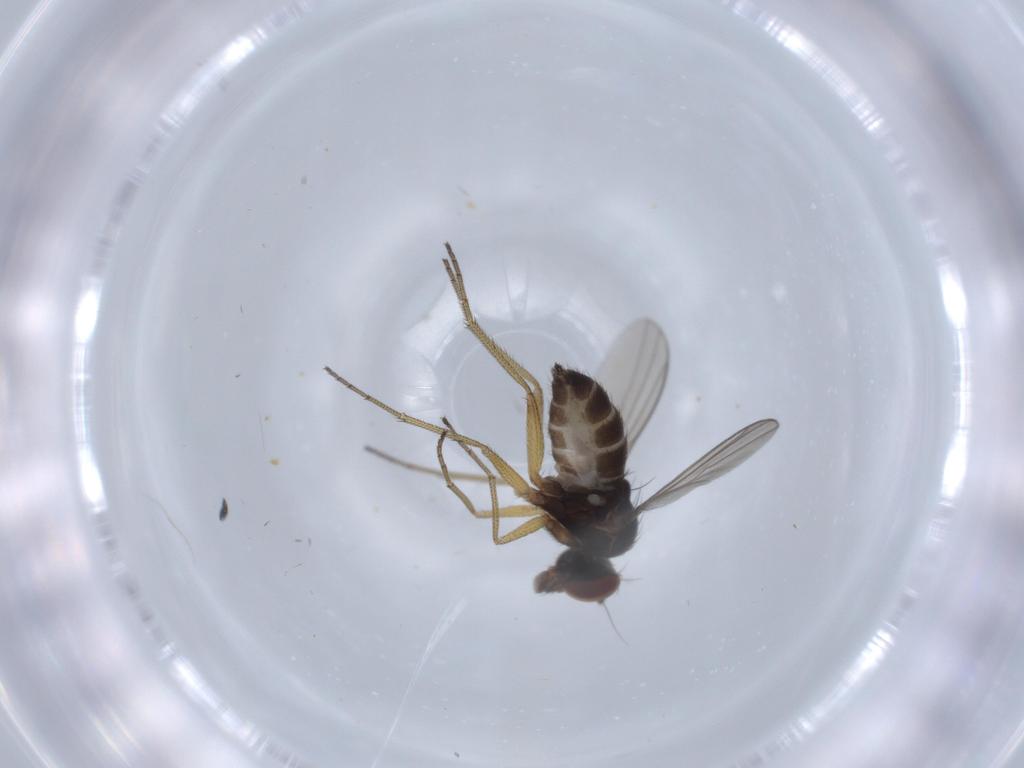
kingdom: Animalia
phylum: Arthropoda
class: Insecta
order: Diptera
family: Dolichopodidae
